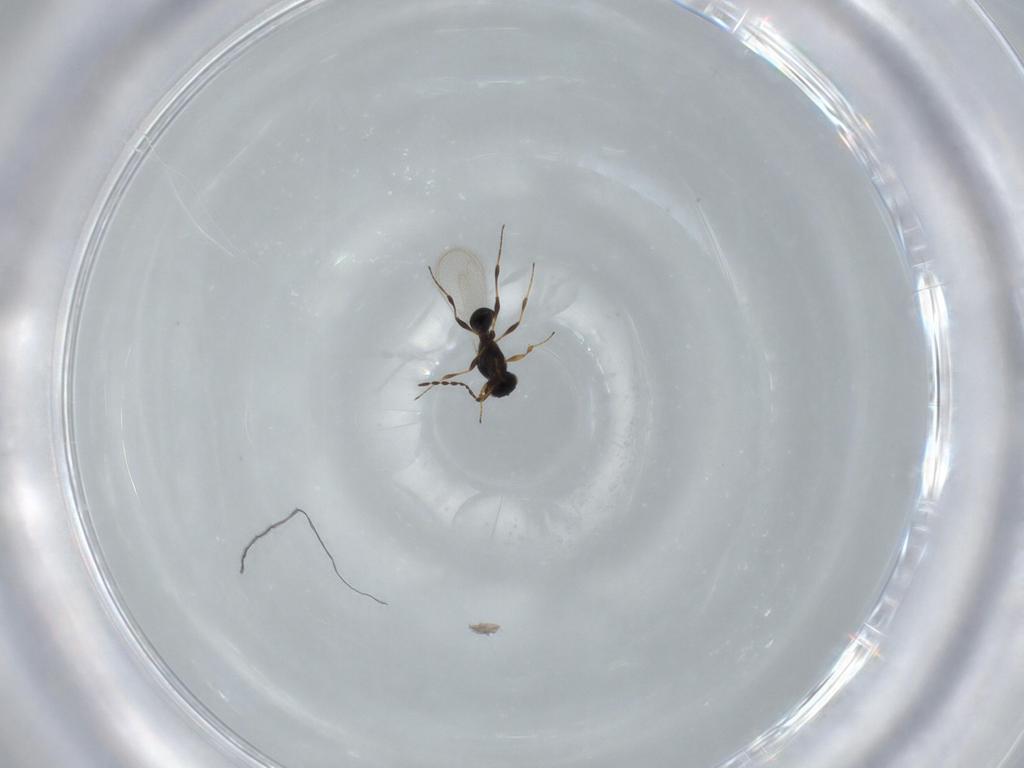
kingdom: Animalia
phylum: Arthropoda
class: Insecta
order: Hymenoptera
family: Platygastridae
